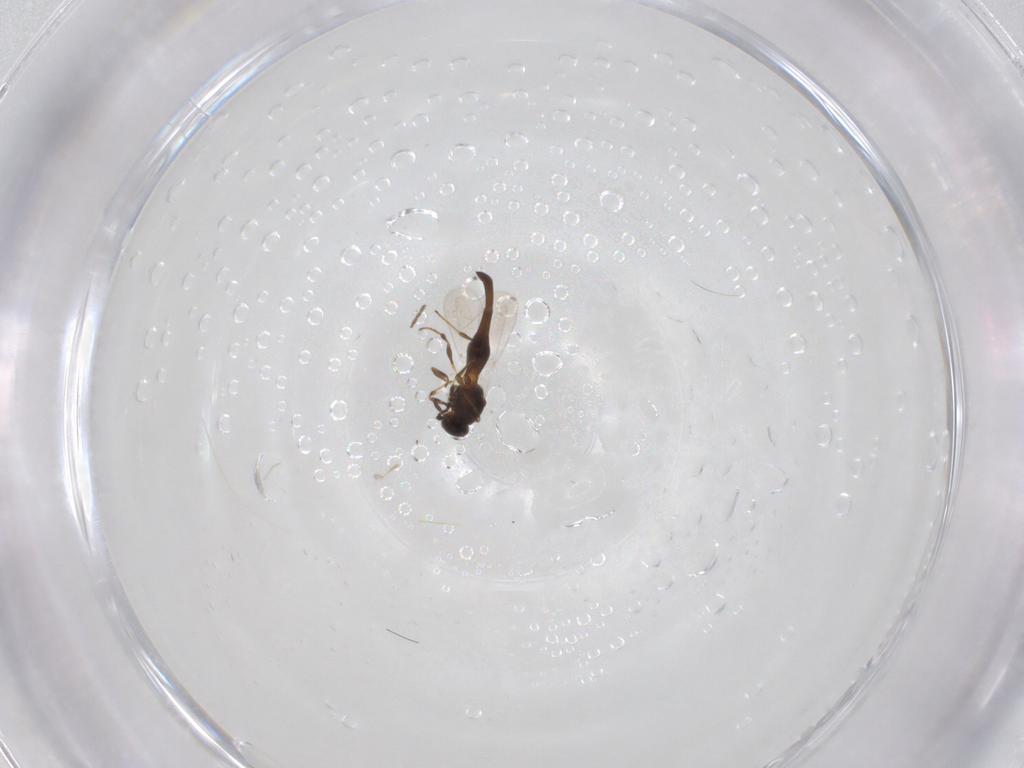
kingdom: Animalia
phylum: Arthropoda
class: Insecta
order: Diptera
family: Sciaridae
